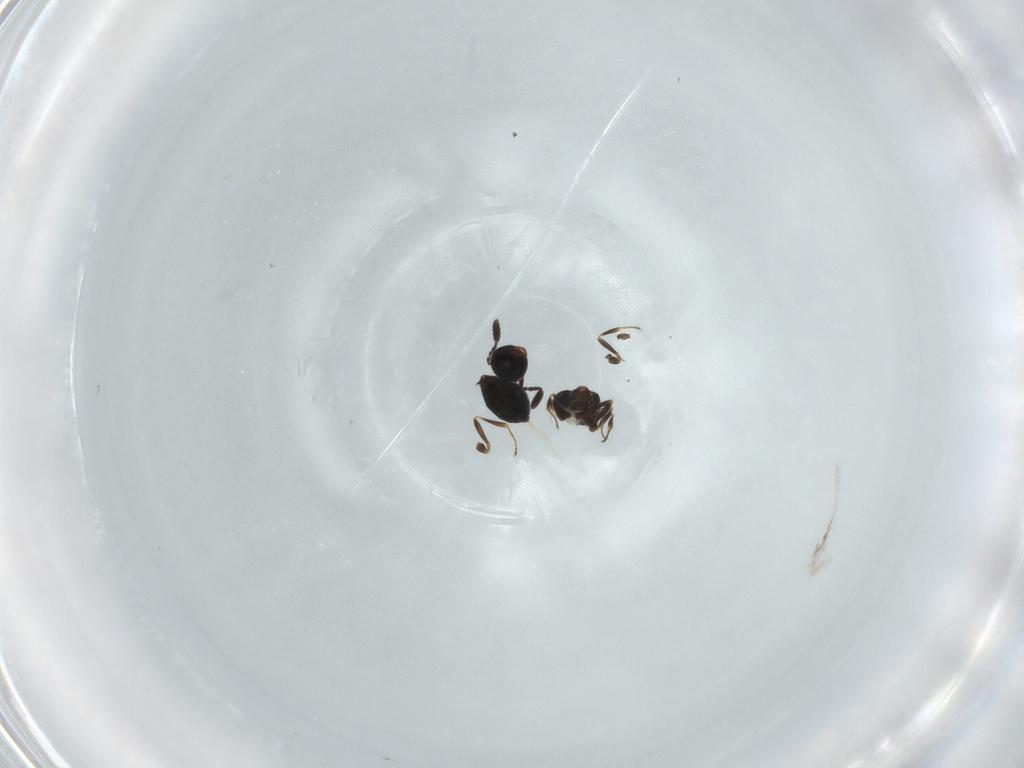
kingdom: Animalia
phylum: Arthropoda
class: Insecta
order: Hymenoptera
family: Scelionidae
